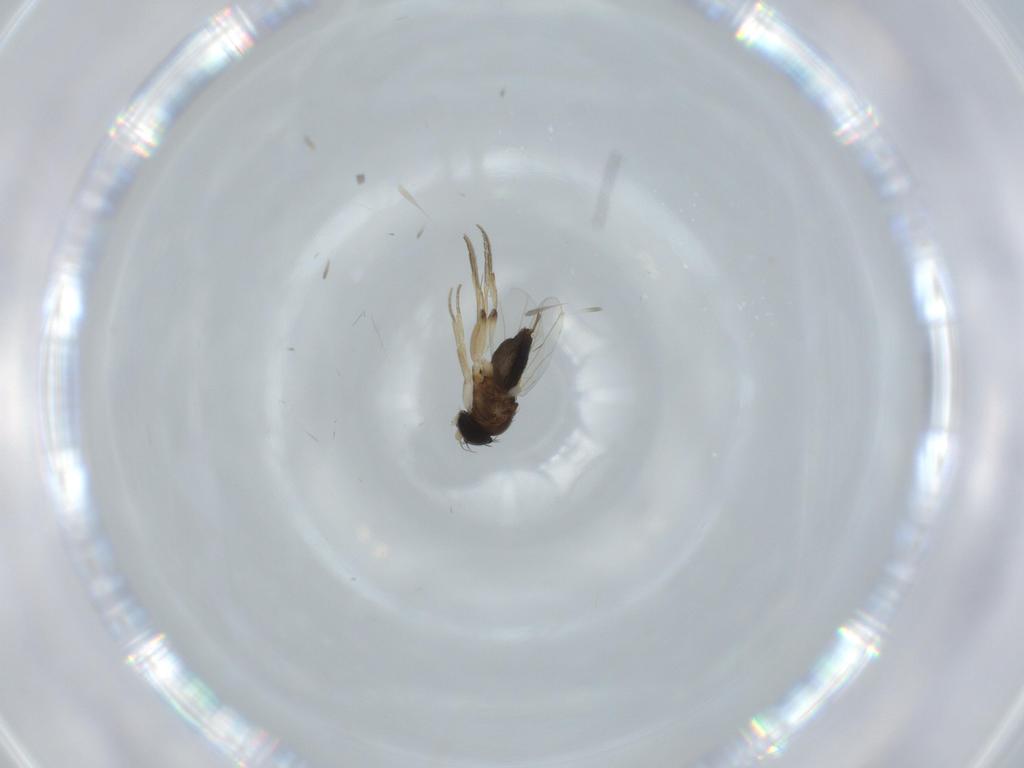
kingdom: Animalia
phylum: Arthropoda
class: Insecta
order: Diptera
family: Phoridae
